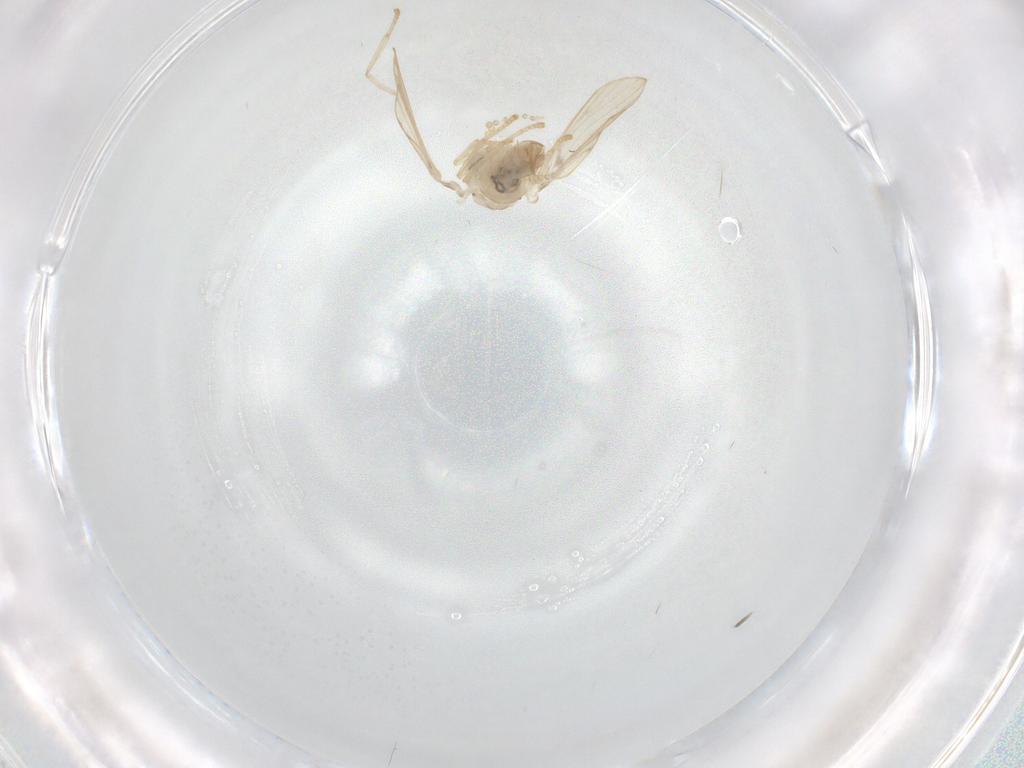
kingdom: Animalia
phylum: Arthropoda
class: Insecta
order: Diptera
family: Psychodidae
